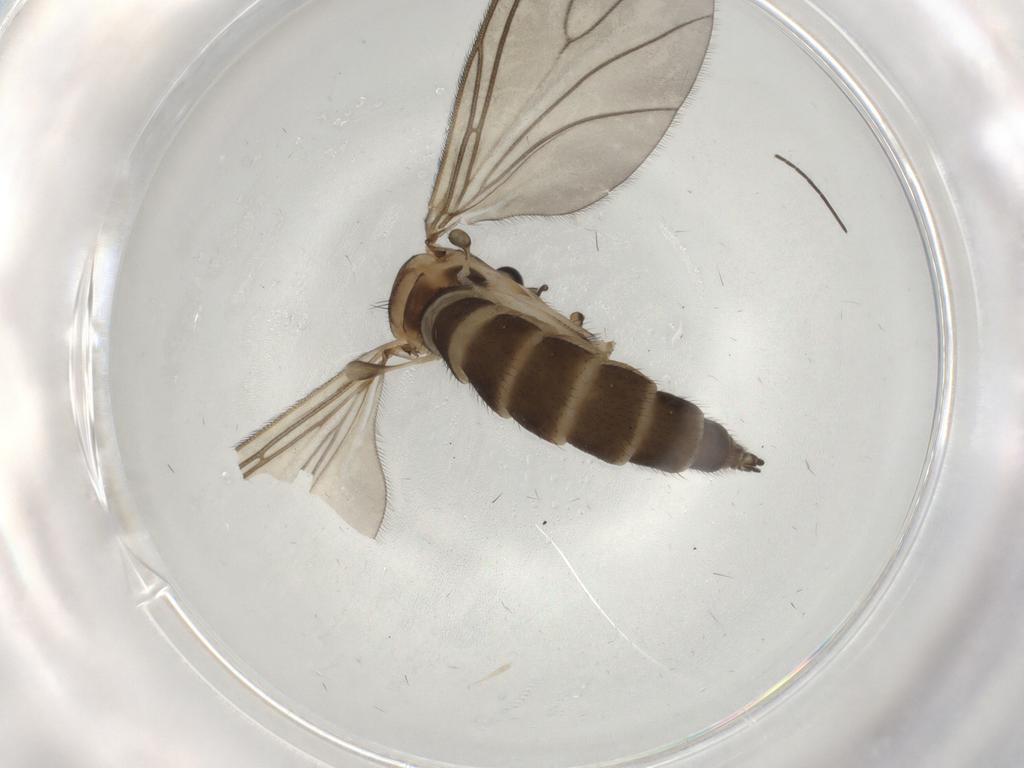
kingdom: Animalia
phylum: Arthropoda
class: Insecta
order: Diptera
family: Sciaridae
